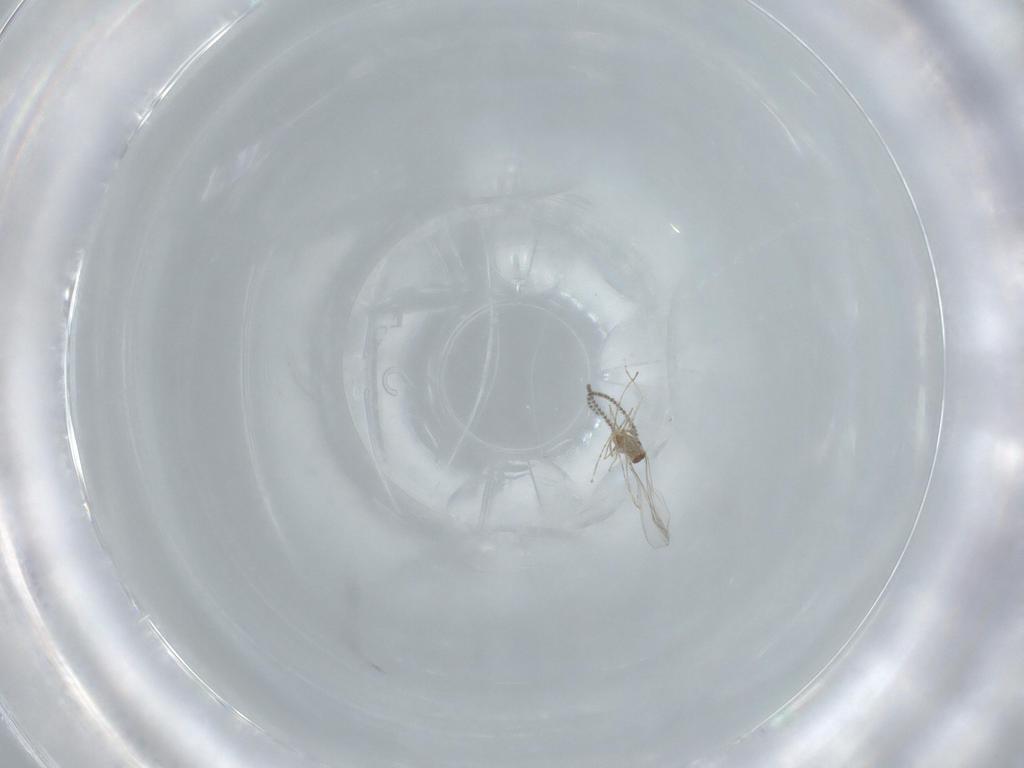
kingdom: Animalia
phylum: Arthropoda
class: Insecta
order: Diptera
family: Cecidomyiidae
